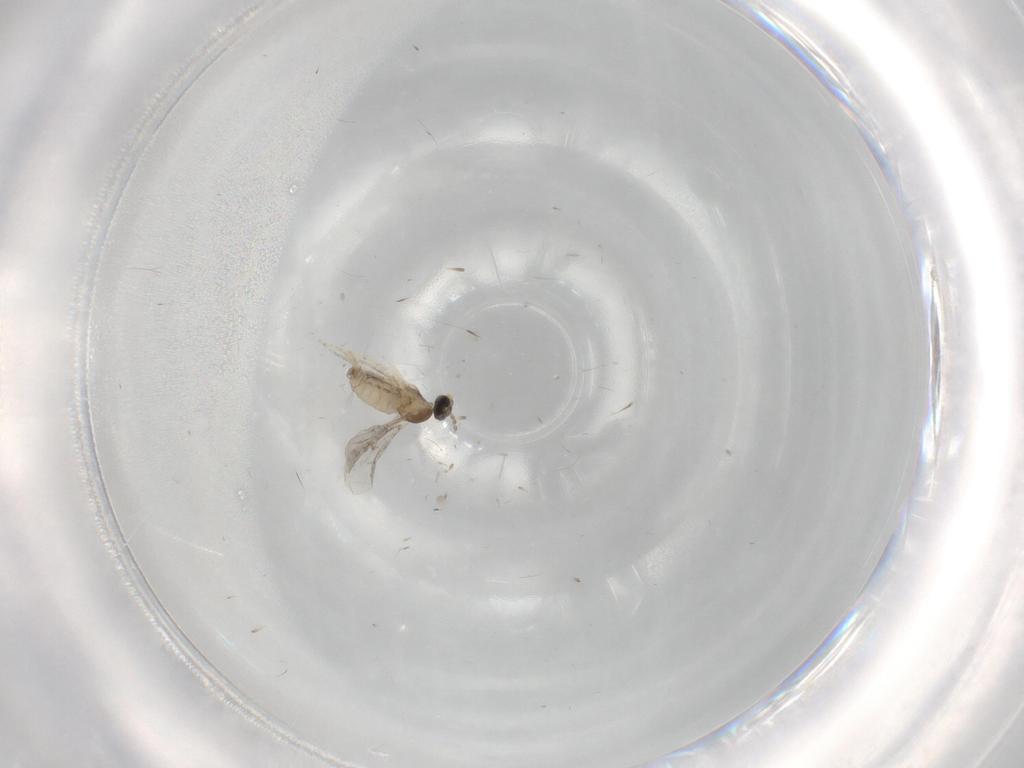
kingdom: Animalia
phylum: Arthropoda
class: Insecta
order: Diptera
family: Cecidomyiidae
